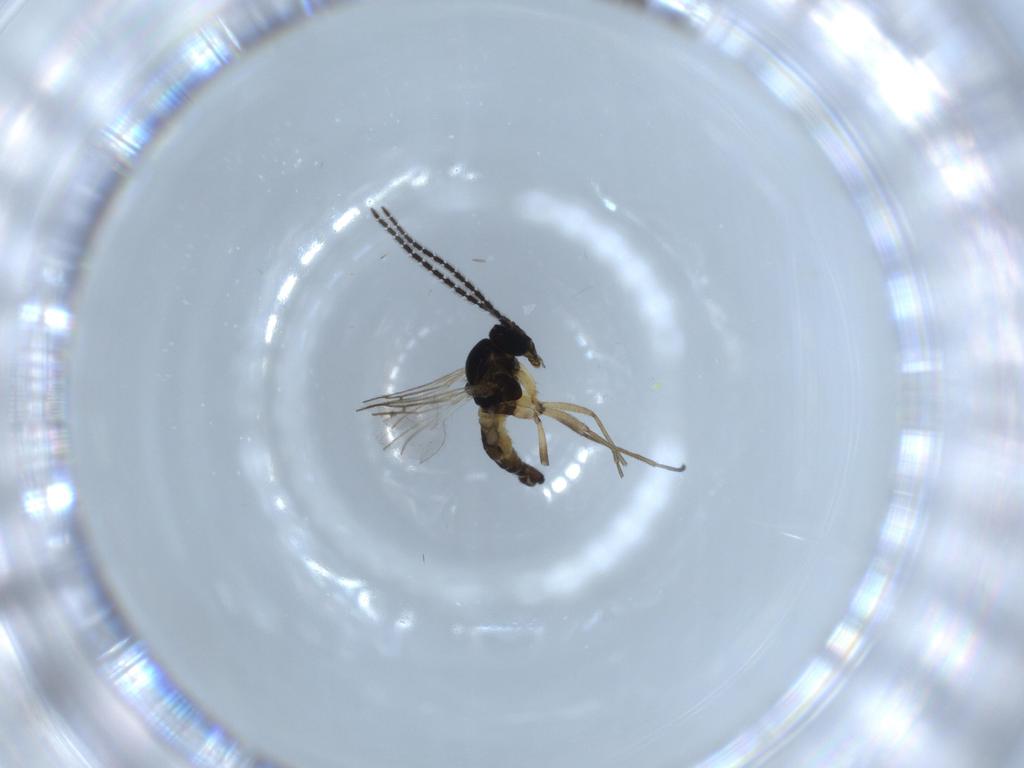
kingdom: Animalia
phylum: Arthropoda
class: Insecta
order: Diptera
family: Sciaridae
